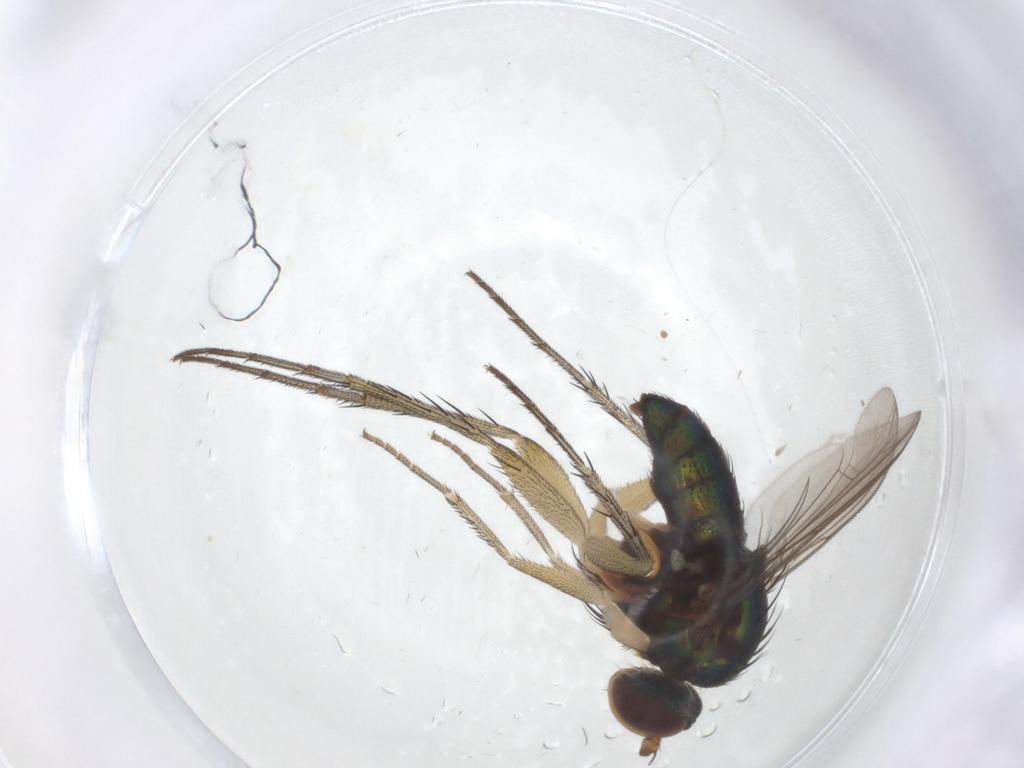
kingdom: Animalia
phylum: Arthropoda
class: Insecta
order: Diptera
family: Dolichopodidae
